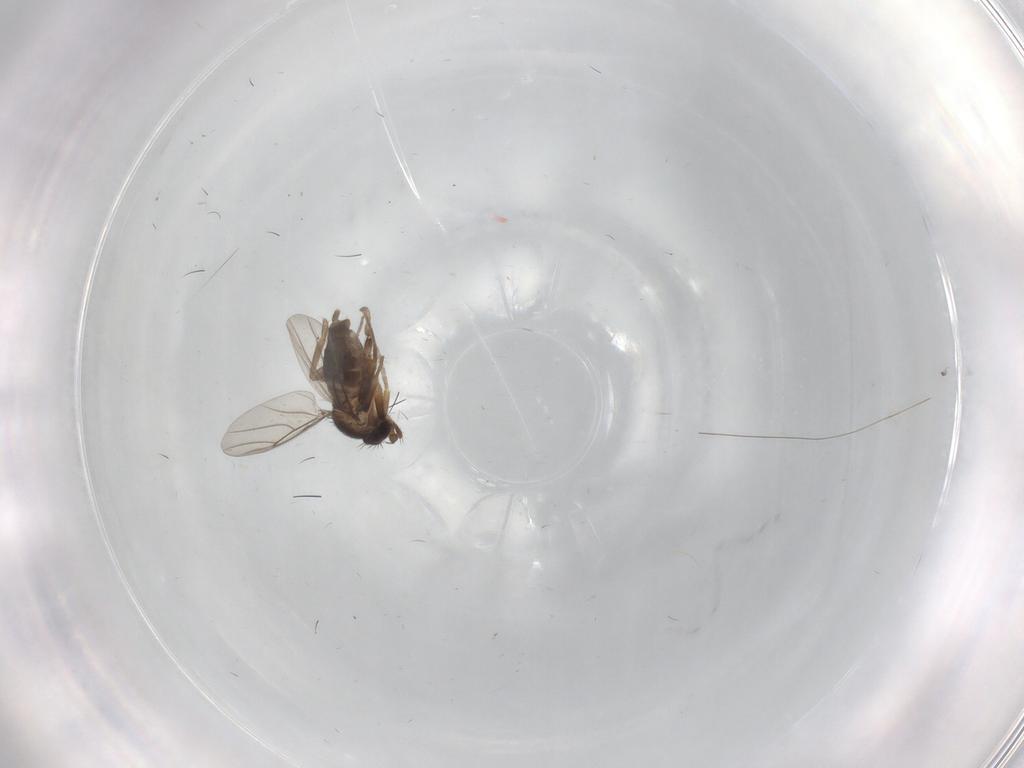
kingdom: Animalia
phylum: Arthropoda
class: Insecta
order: Diptera
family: Phoridae
